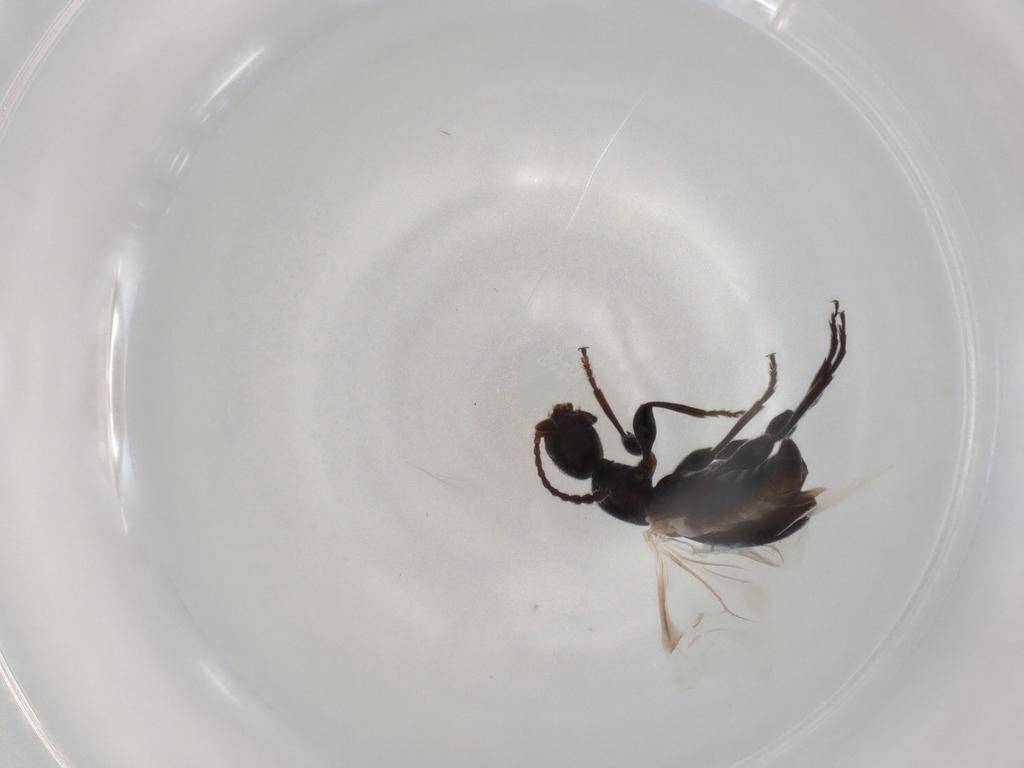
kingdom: Animalia
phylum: Arthropoda
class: Insecta
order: Coleoptera
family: Anthicidae
